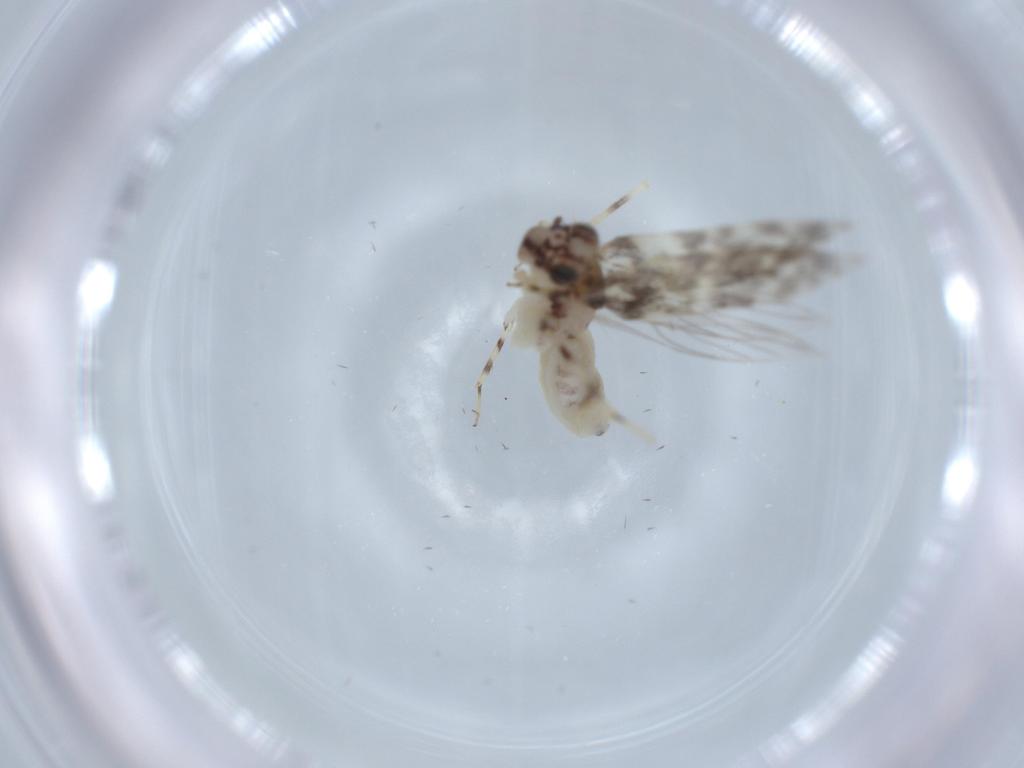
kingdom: Animalia
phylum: Arthropoda
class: Insecta
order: Psocodea
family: Lepidopsocidae
